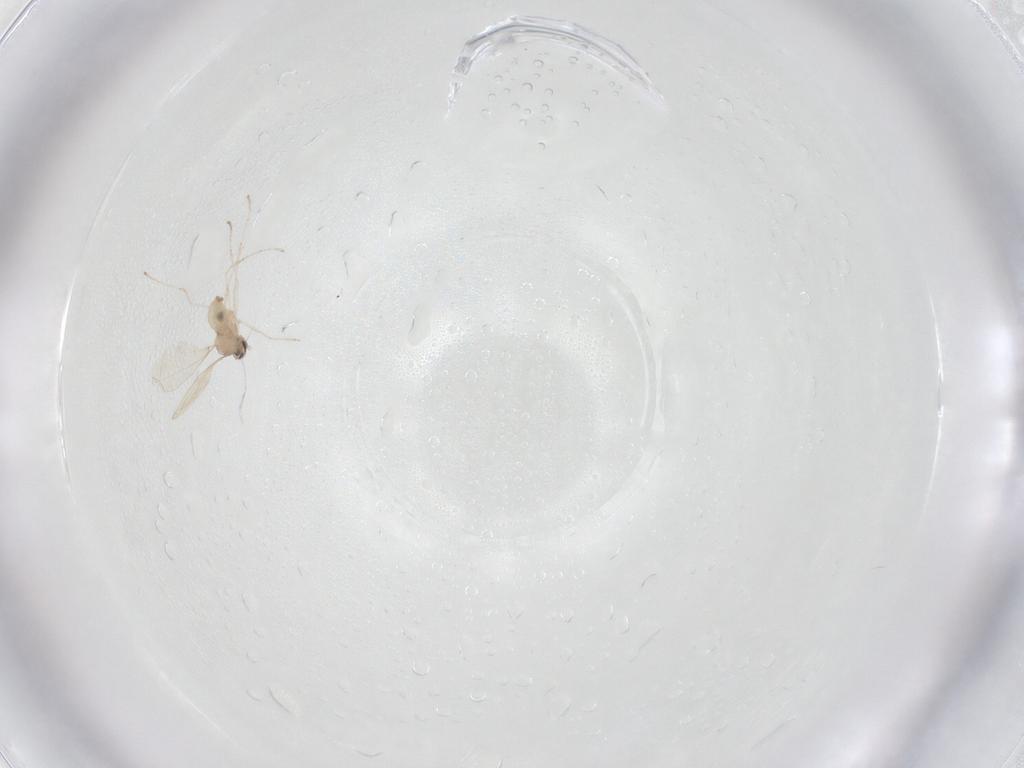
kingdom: Animalia
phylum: Arthropoda
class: Insecta
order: Diptera
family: Cecidomyiidae
